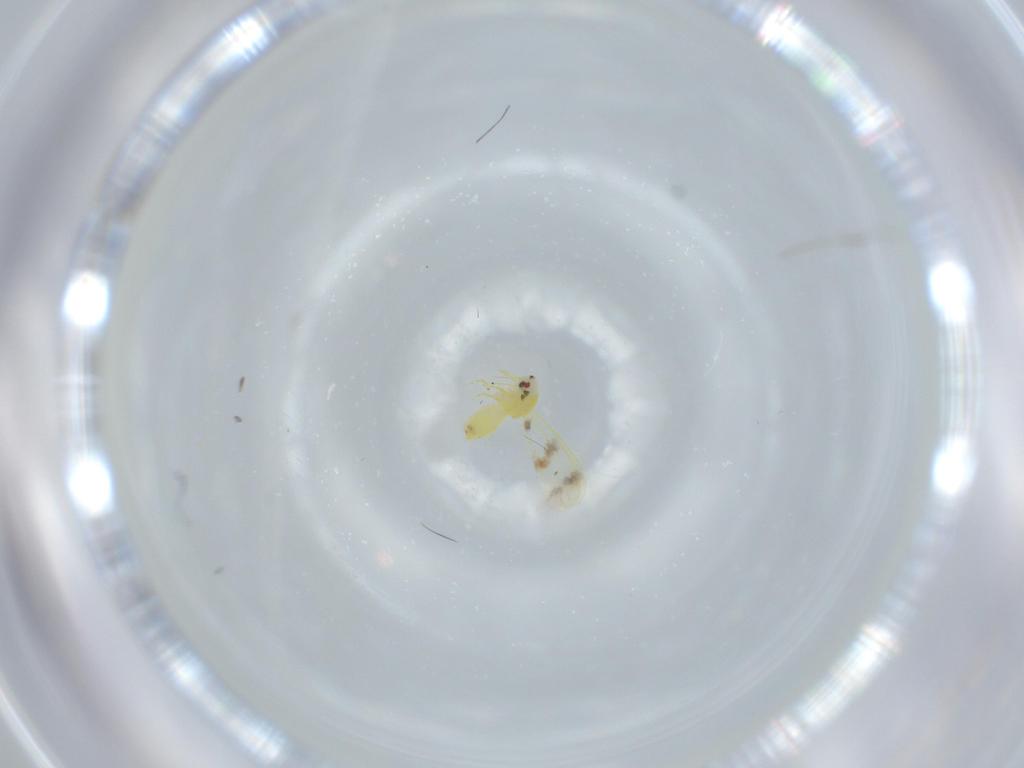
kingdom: Animalia
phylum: Arthropoda
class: Insecta
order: Hemiptera
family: Aleyrodidae
